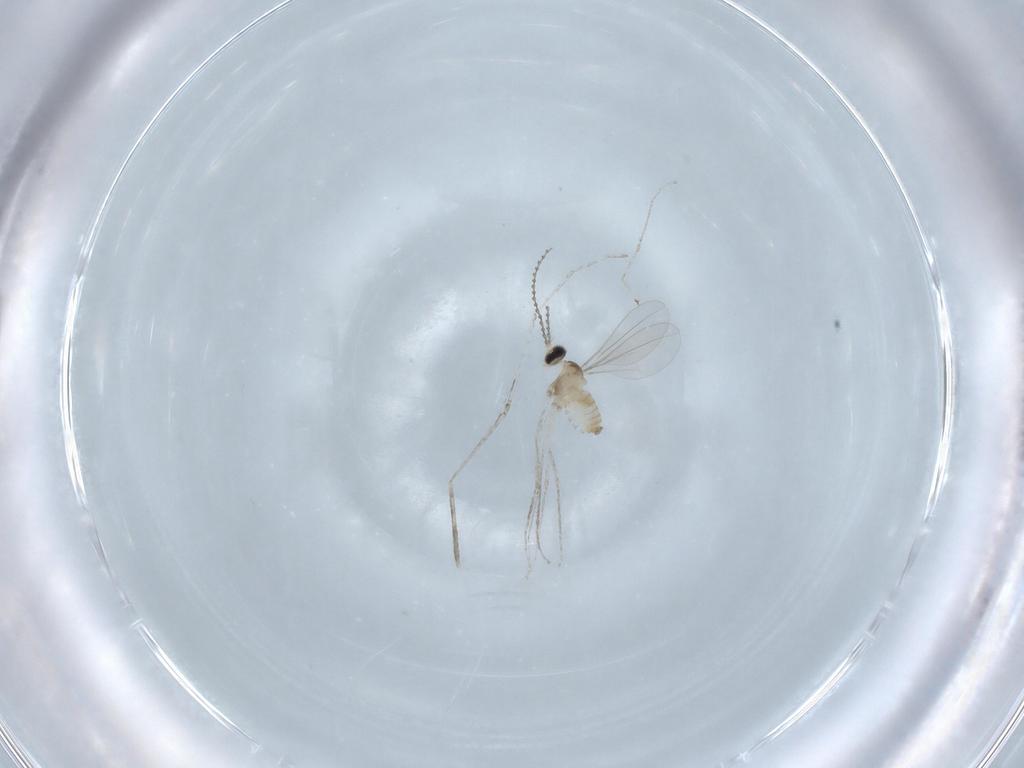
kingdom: Animalia
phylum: Arthropoda
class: Insecta
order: Diptera
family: Cecidomyiidae
